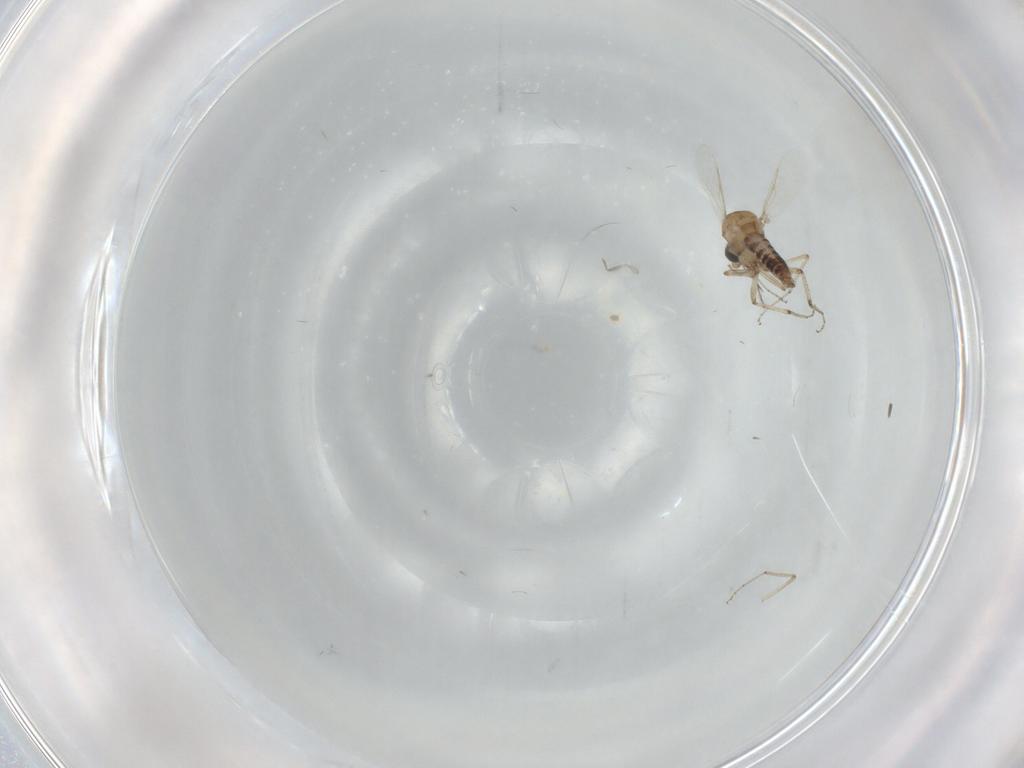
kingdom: Animalia
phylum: Arthropoda
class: Insecta
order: Diptera
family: Ceratopogonidae
